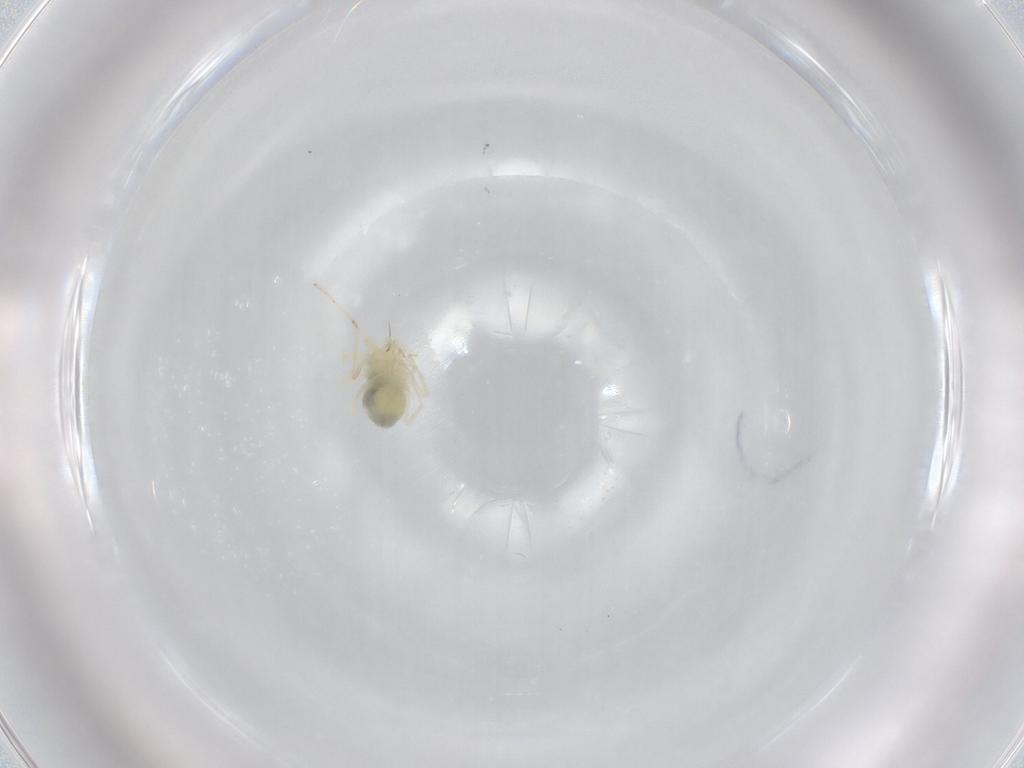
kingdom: Animalia
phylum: Arthropoda
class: Arachnida
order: Trombidiformes
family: Anystidae
